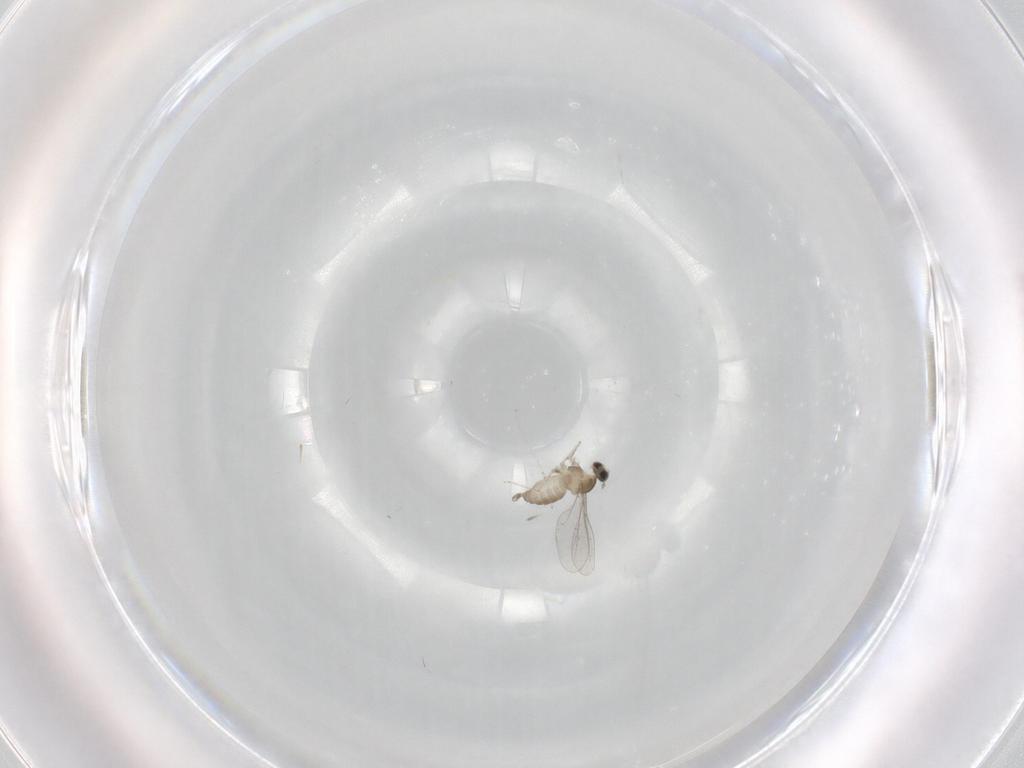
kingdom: Animalia
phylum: Arthropoda
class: Insecta
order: Diptera
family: Cecidomyiidae
